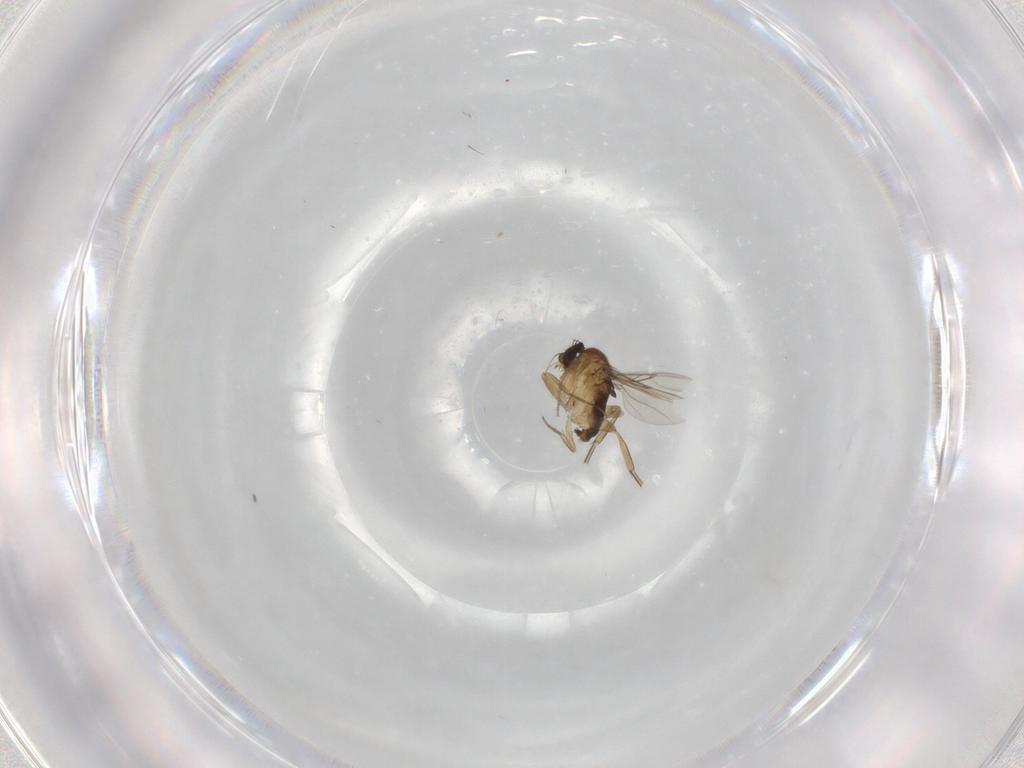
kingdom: Animalia
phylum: Arthropoda
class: Insecta
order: Diptera
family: Phoridae
